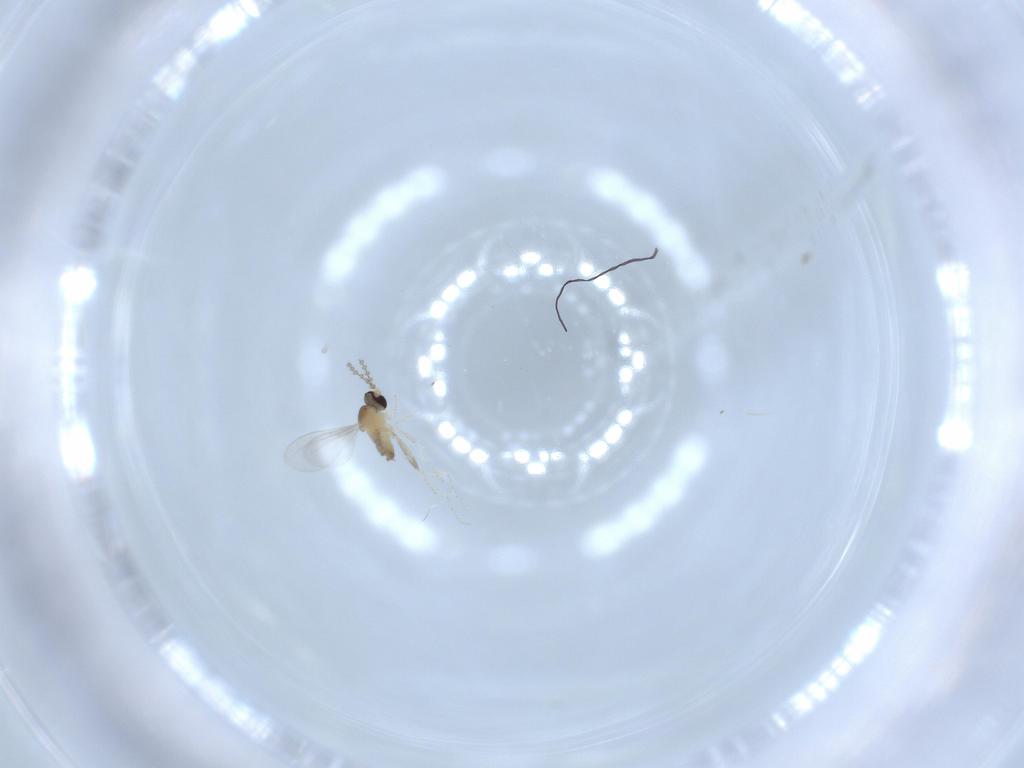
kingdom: Animalia
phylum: Arthropoda
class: Insecta
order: Diptera
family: Cecidomyiidae
